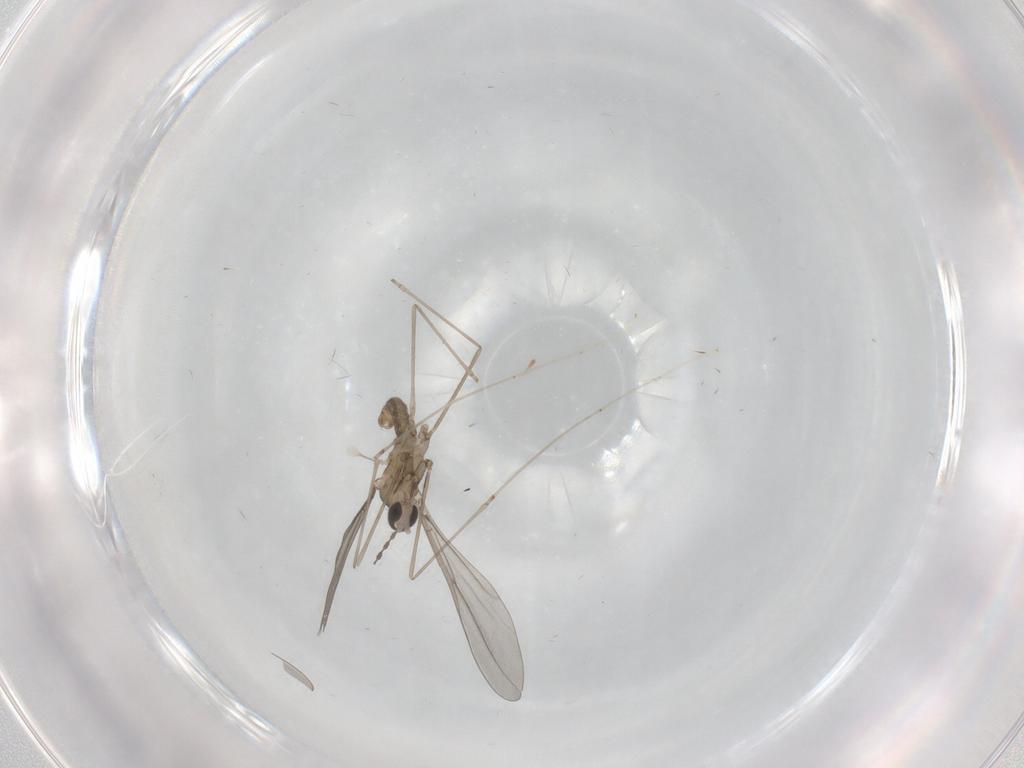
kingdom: Animalia
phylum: Arthropoda
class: Insecta
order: Diptera
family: Cecidomyiidae
